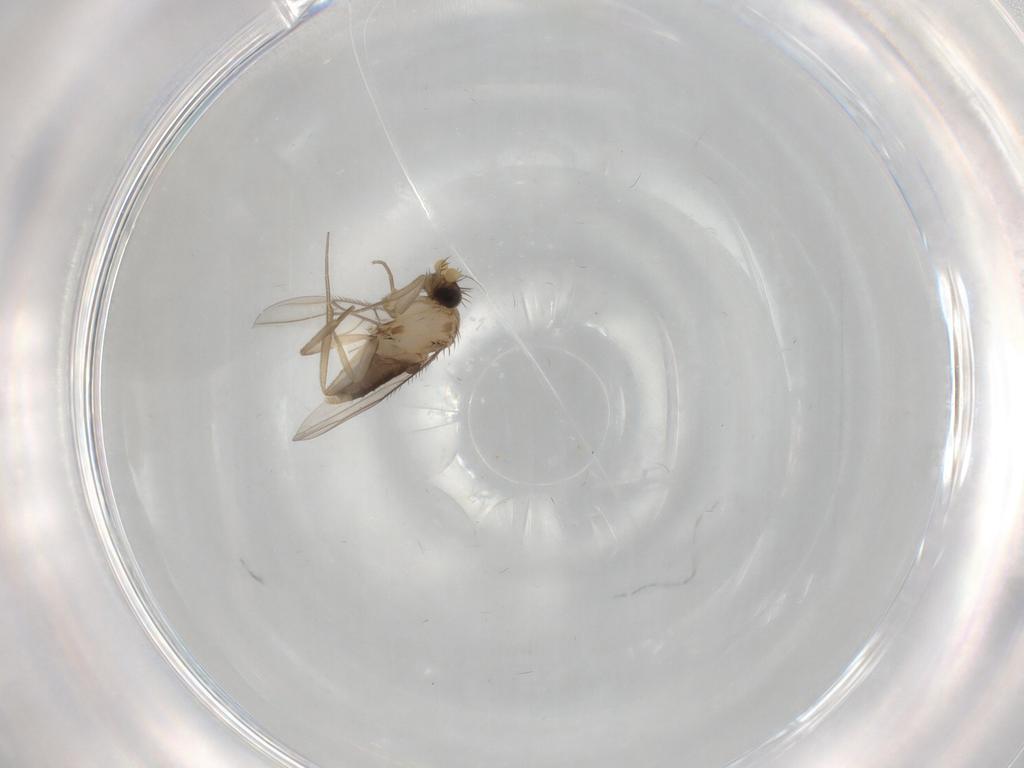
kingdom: Animalia
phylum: Arthropoda
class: Insecta
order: Diptera
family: Phoridae
